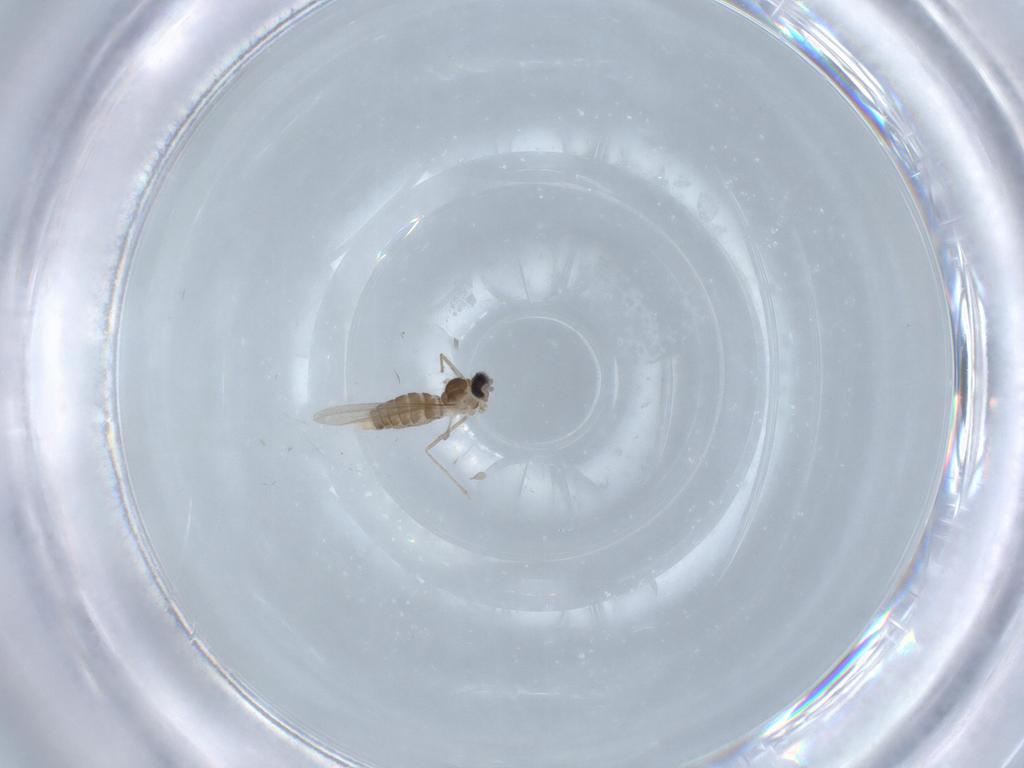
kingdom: Animalia
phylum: Arthropoda
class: Insecta
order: Diptera
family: Cecidomyiidae
